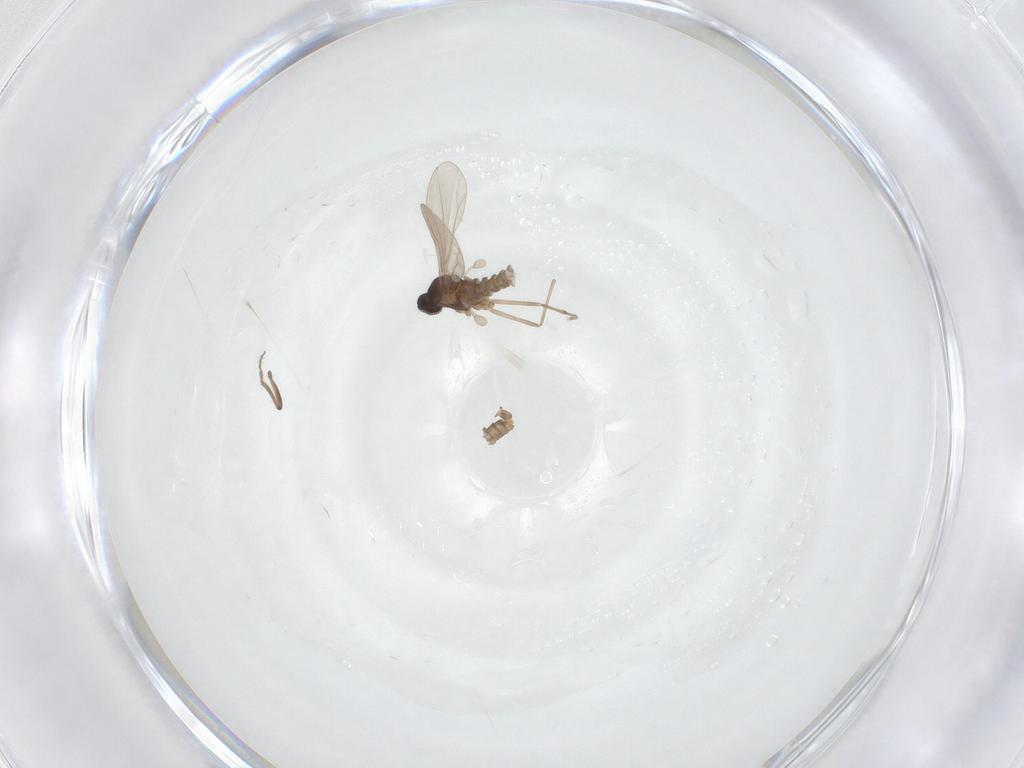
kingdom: Animalia
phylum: Arthropoda
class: Insecta
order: Diptera
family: Ceratopogonidae
